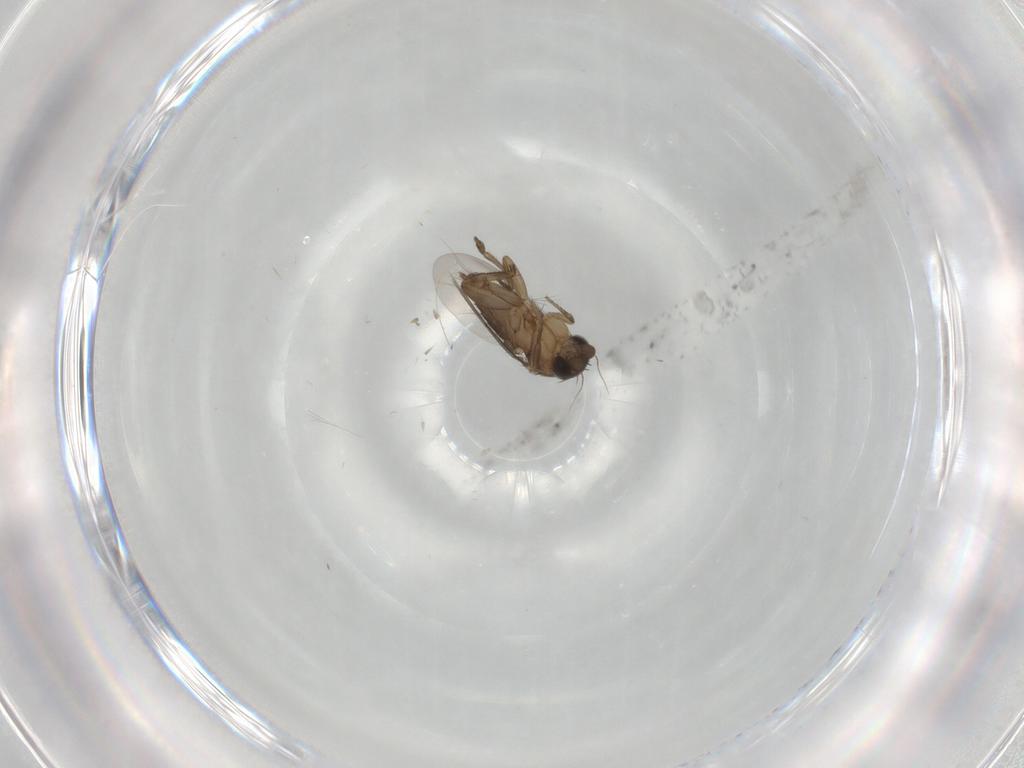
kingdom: Animalia
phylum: Arthropoda
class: Insecta
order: Diptera
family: Phoridae
